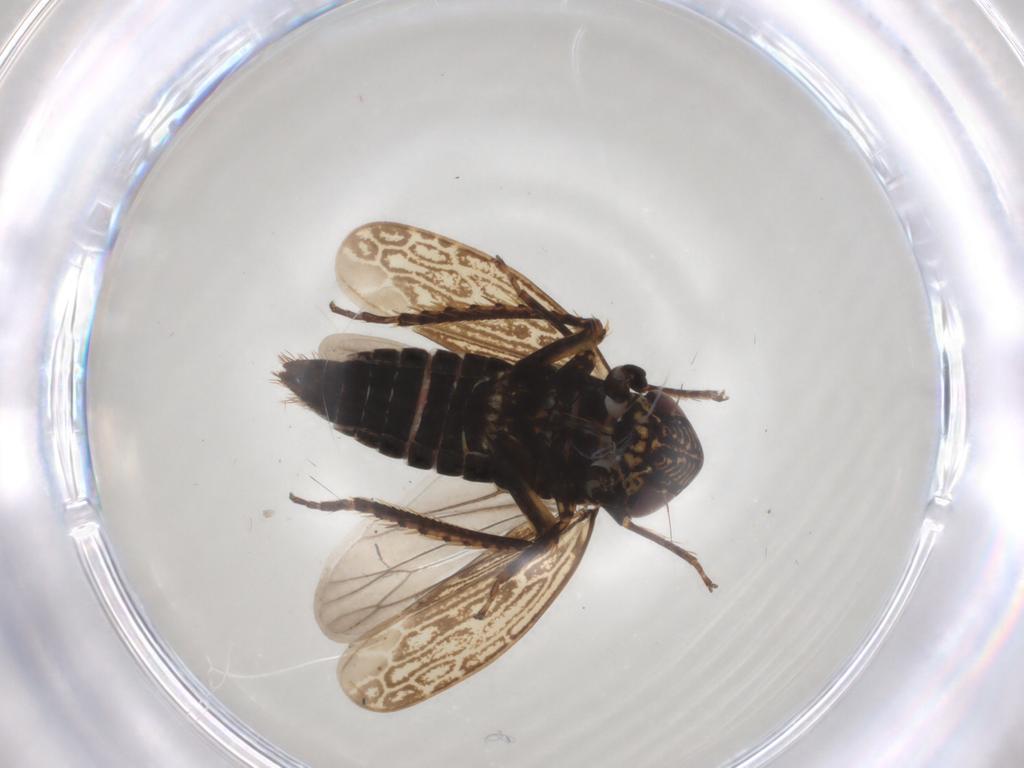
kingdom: Animalia
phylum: Arthropoda
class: Insecta
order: Hemiptera
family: Cicadellidae
